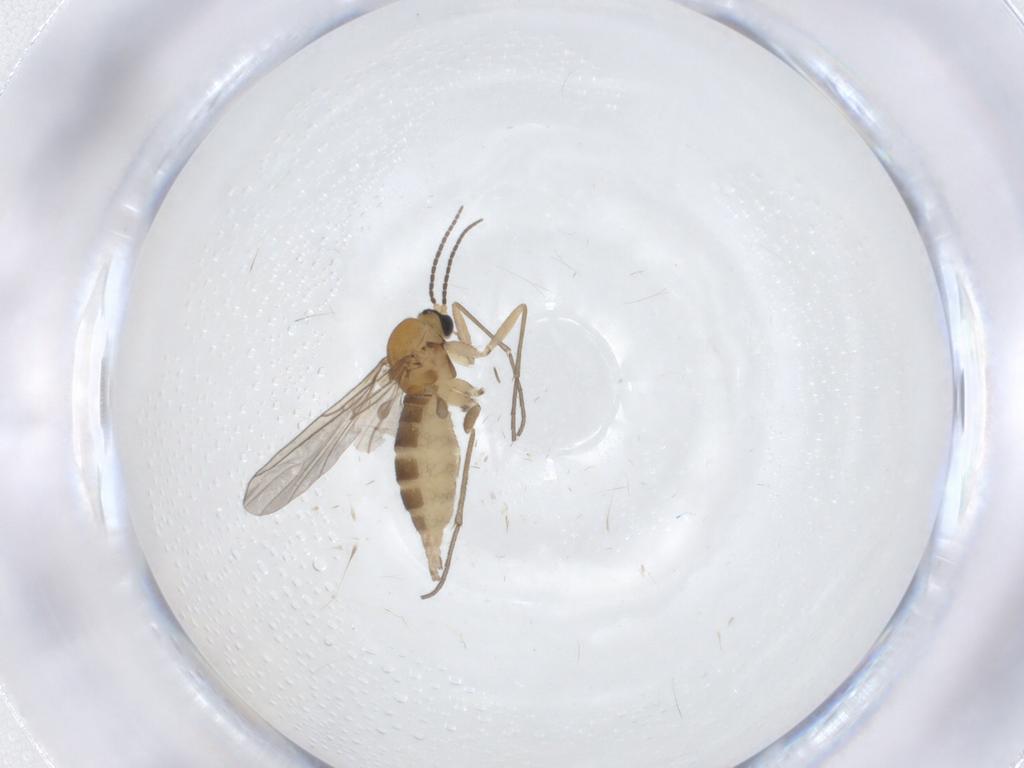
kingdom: Animalia
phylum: Arthropoda
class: Insecta
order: Diptera
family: Sciaridae
